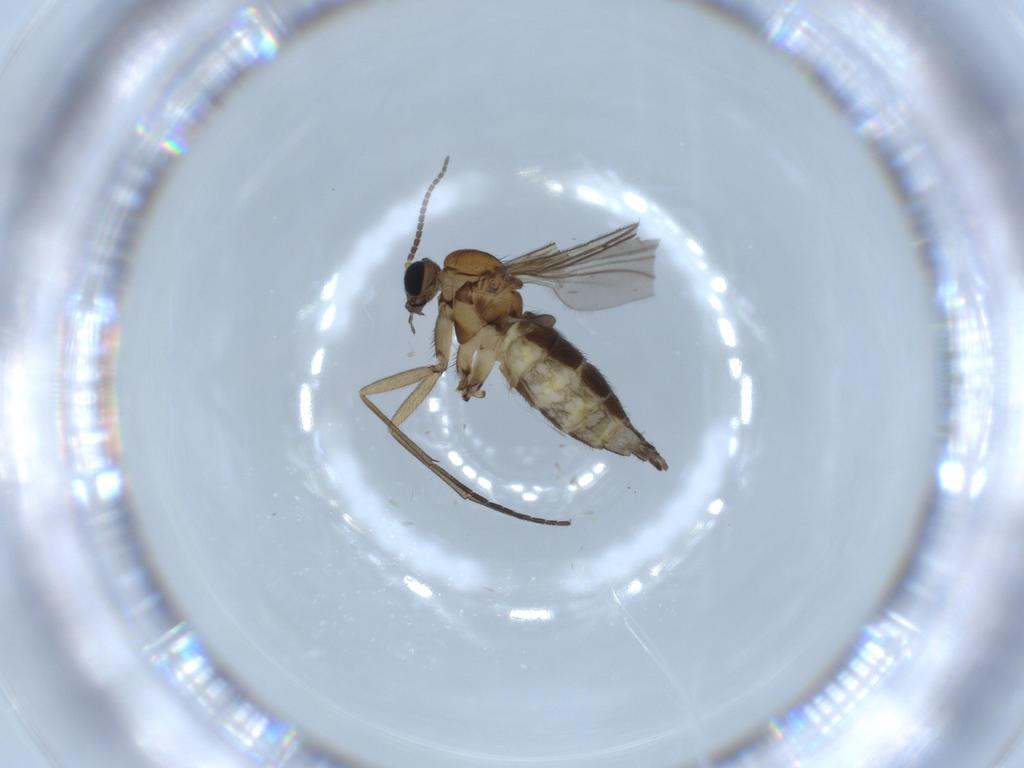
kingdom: Animalia
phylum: Arthropoda
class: Insecta
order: Diptera
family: Sciaridae
